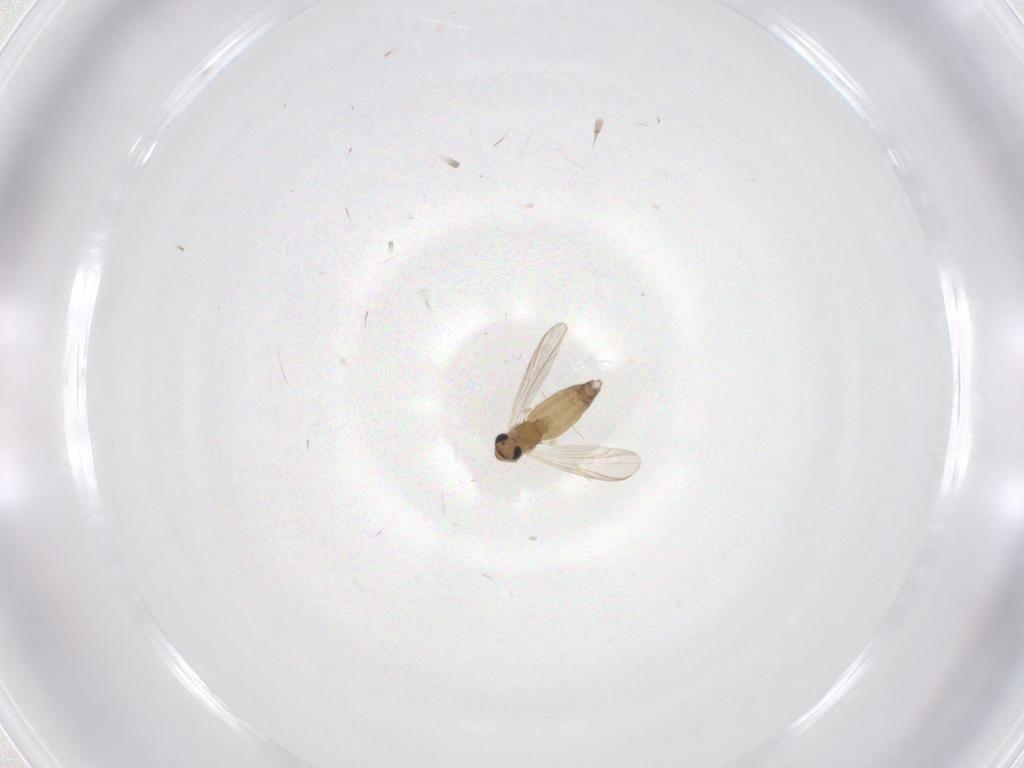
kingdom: Animalia
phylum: Arthropoda
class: Insecta
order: Diptera
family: Chironomidae
